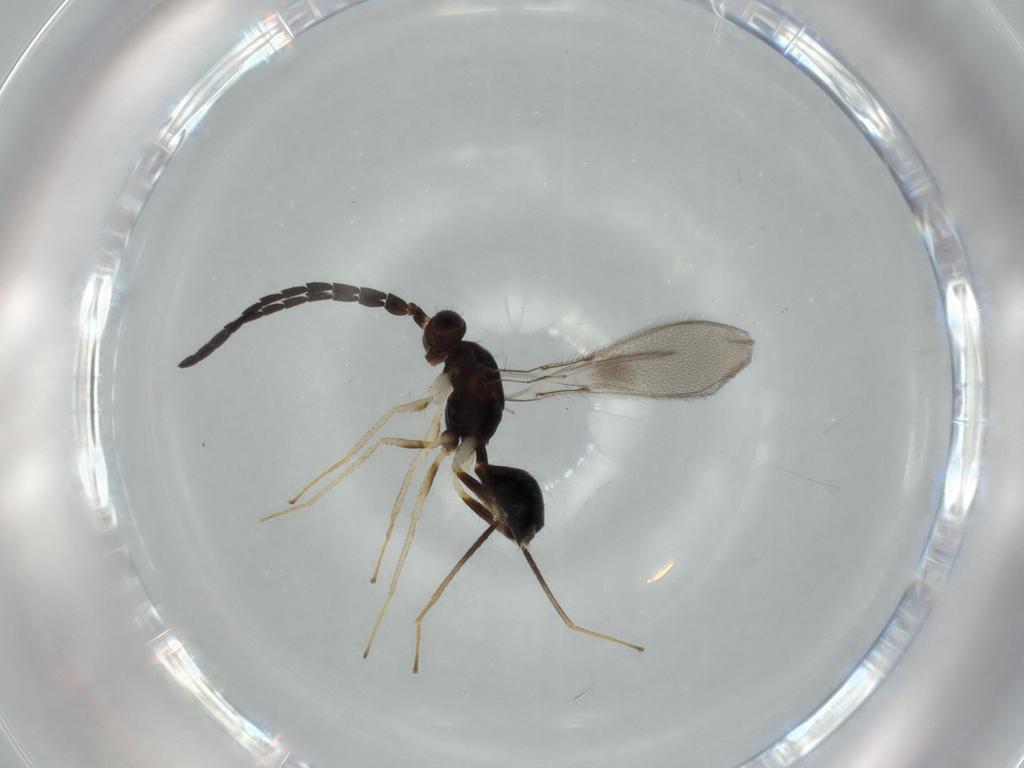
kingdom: Animalia
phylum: Arthropoda
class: Insecta
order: Hymenoptera
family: Mymaridae
